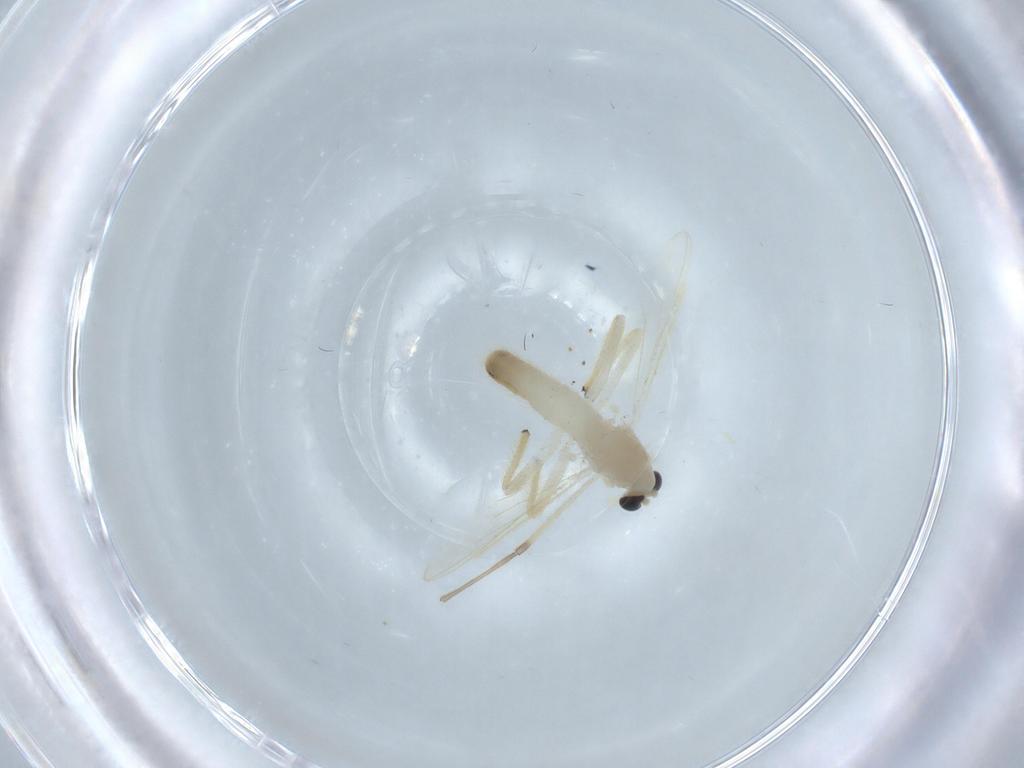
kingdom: Animalia
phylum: Arthropoda
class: Insecta
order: Diptera
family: Chironomidae
